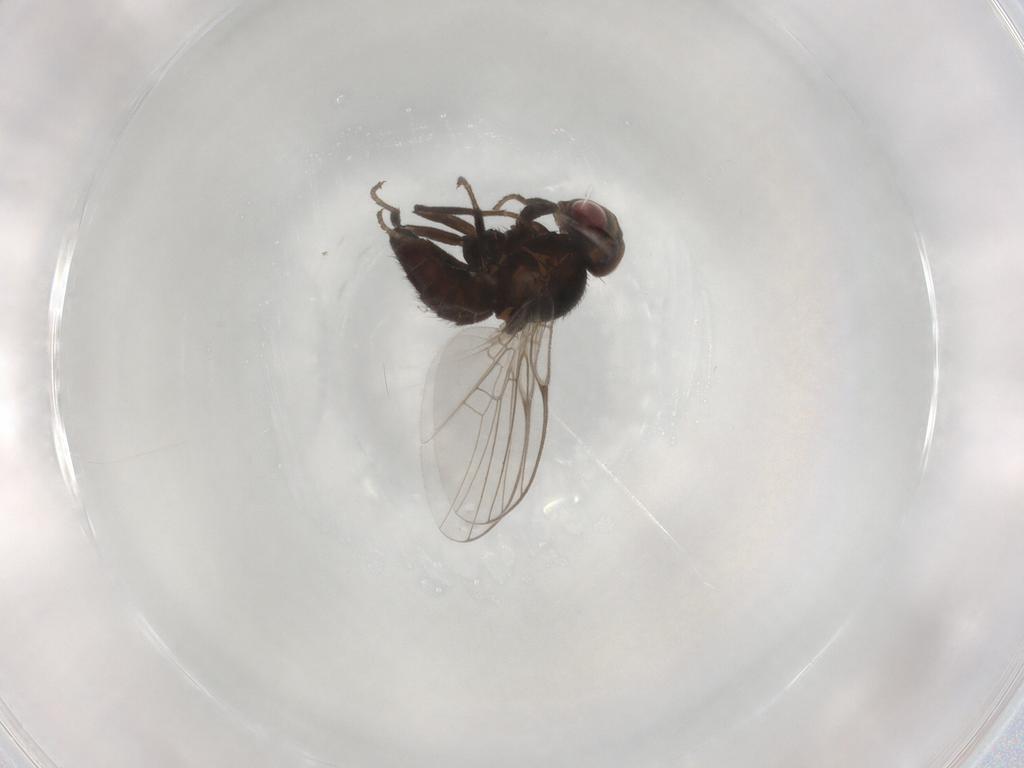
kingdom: Animalia
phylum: Arthropoda
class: Insecta
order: Diptera
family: Agromyzidae
